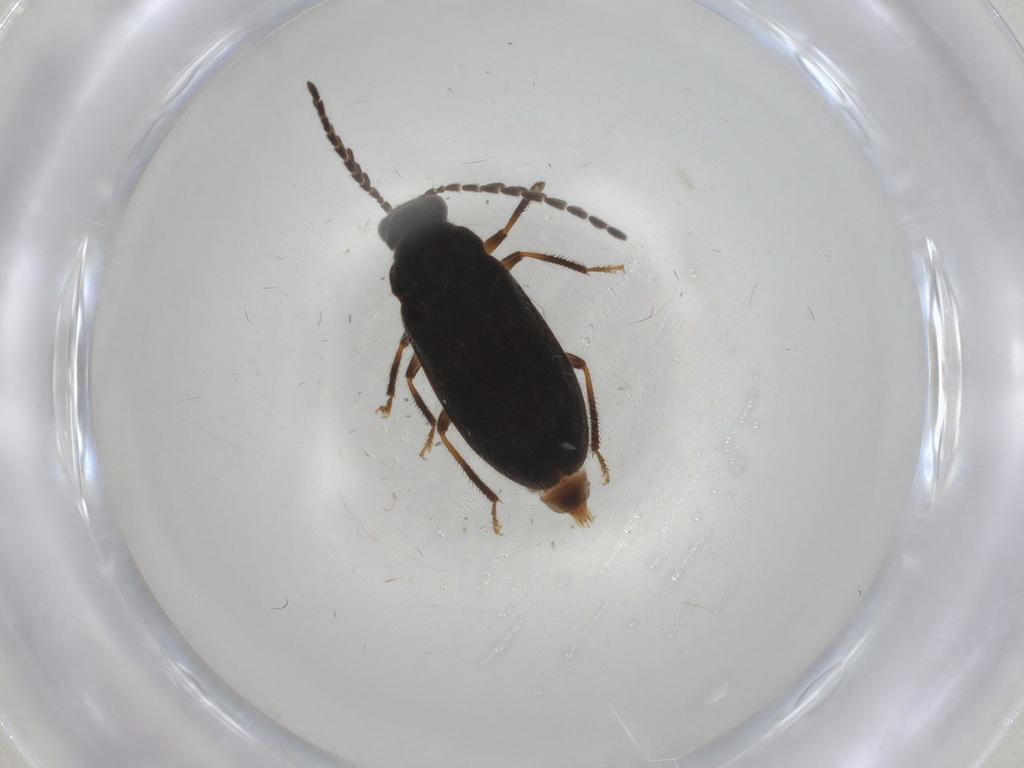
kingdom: Animalia
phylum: Arthropoda
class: Insecta
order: Coleoptera
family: Ptilodactylidae
